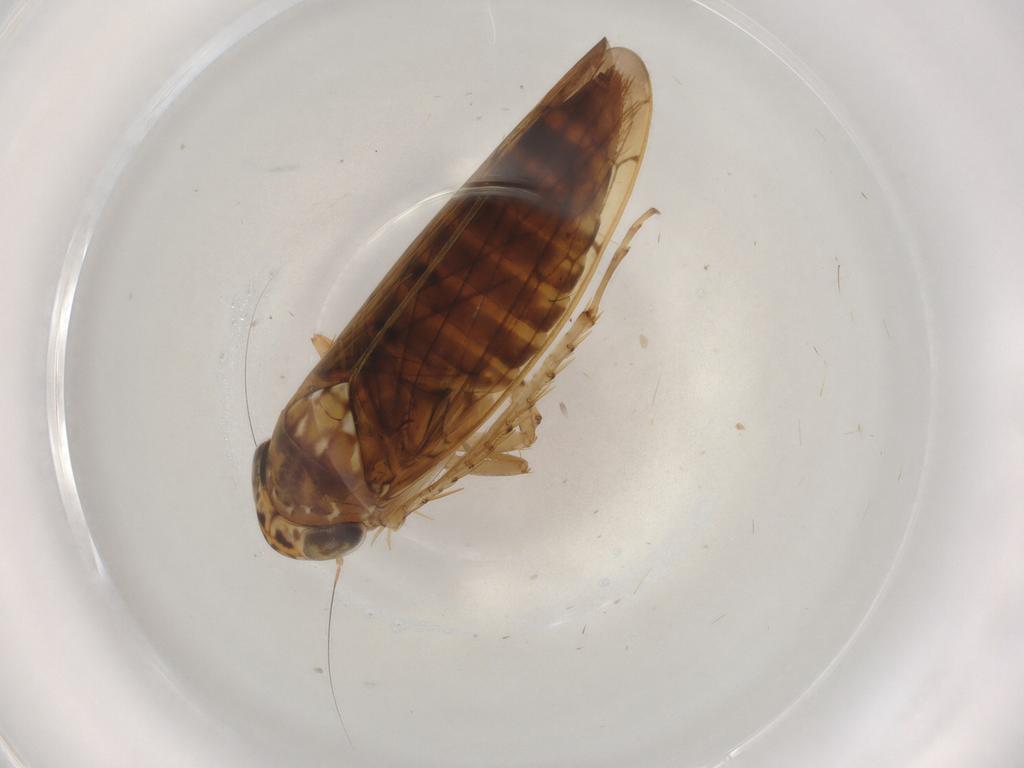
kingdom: Animalia
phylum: Arthropoda
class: Insecta
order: Hemiptera
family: Cicadellidae
